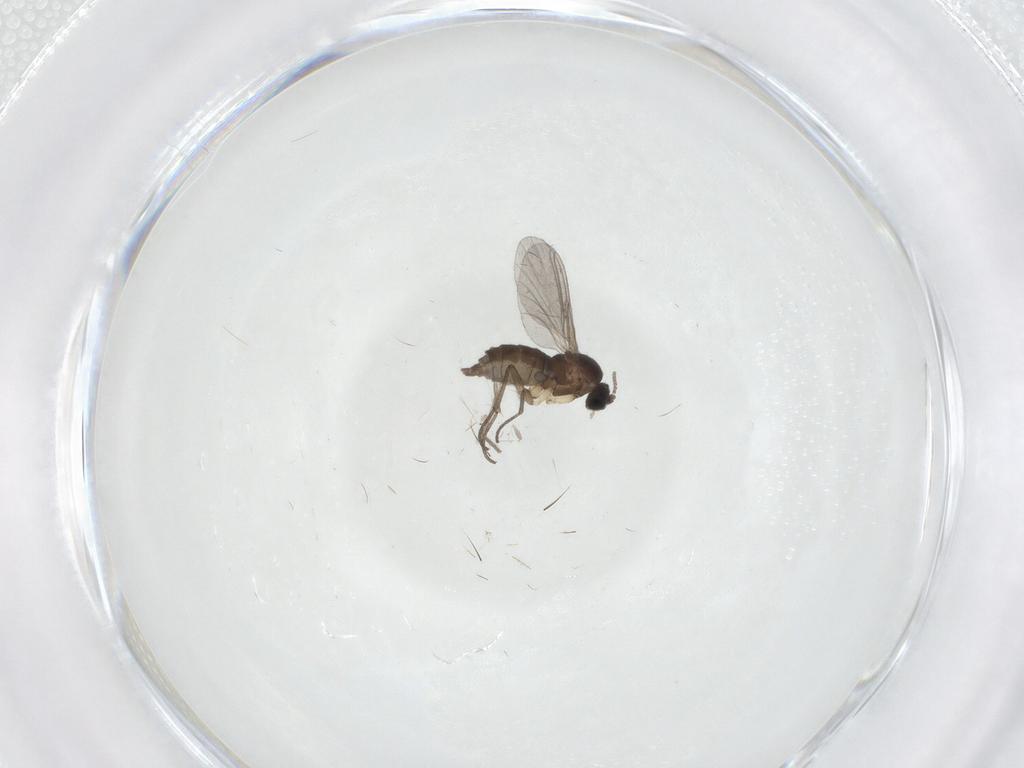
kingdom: Animalia
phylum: Arthropoda
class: Insecta
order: Diptera
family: Sciaridae
